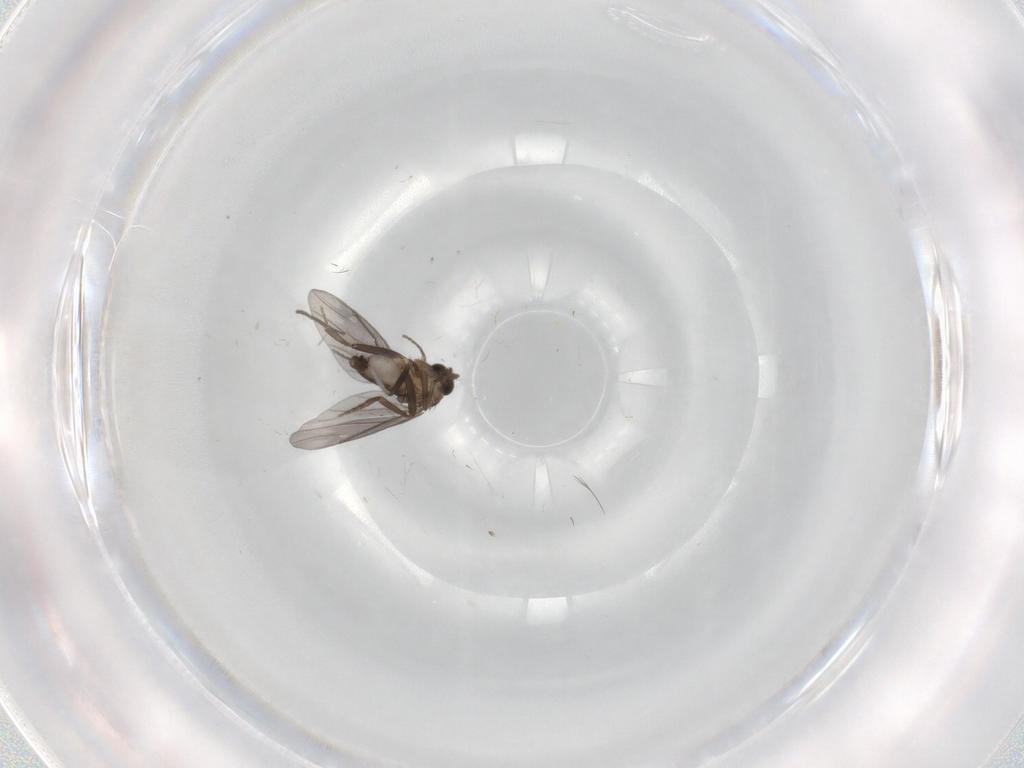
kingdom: Animalia
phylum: Arthropoda
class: Insecta
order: Diptera
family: Phoridae
